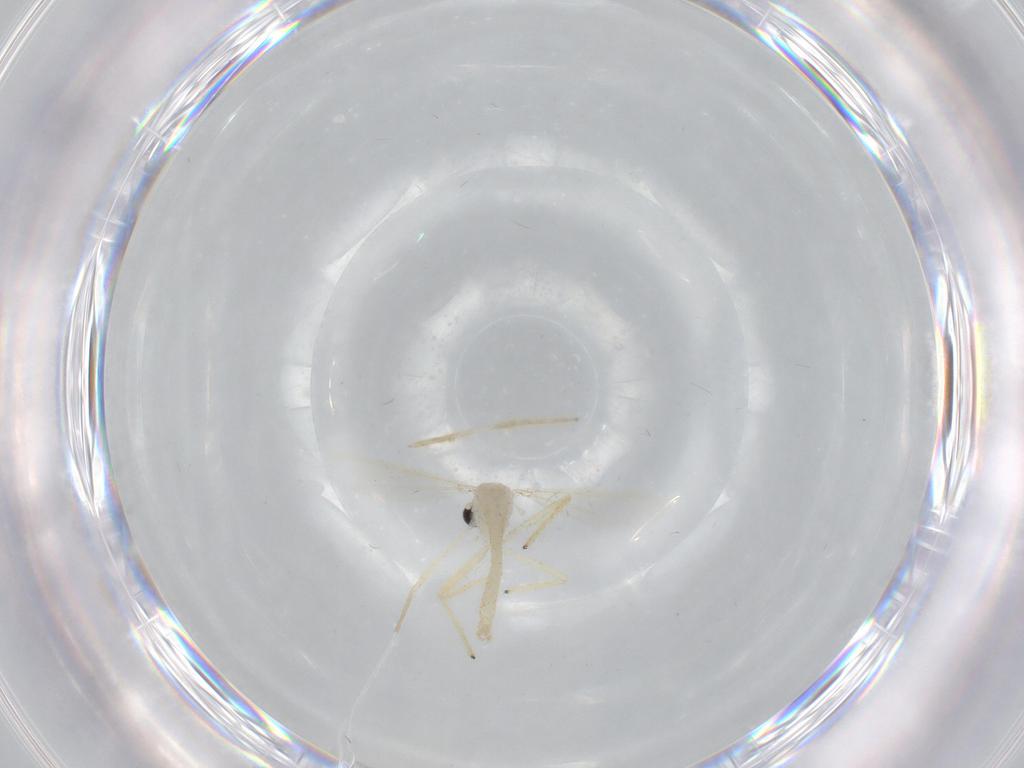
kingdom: Animalia
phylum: Arthropoda
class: Insecta
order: Diptera
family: Chironomidae
